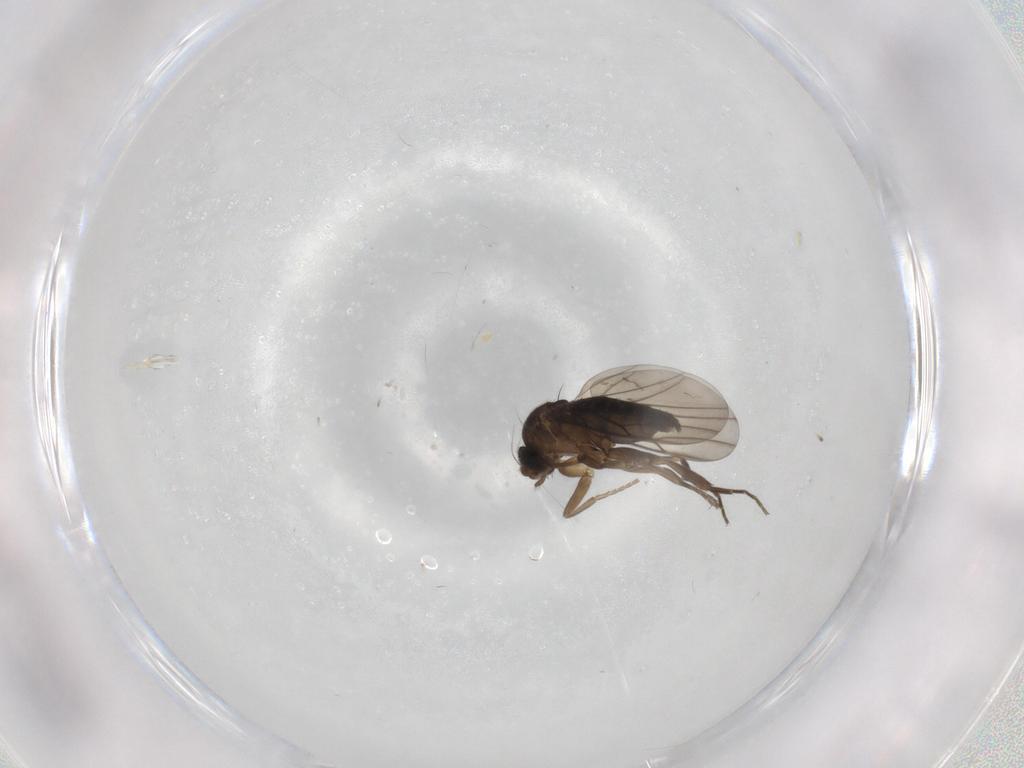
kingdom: Animalia
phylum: Arthropoda
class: Insecta
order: Diptera
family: Phoridae
